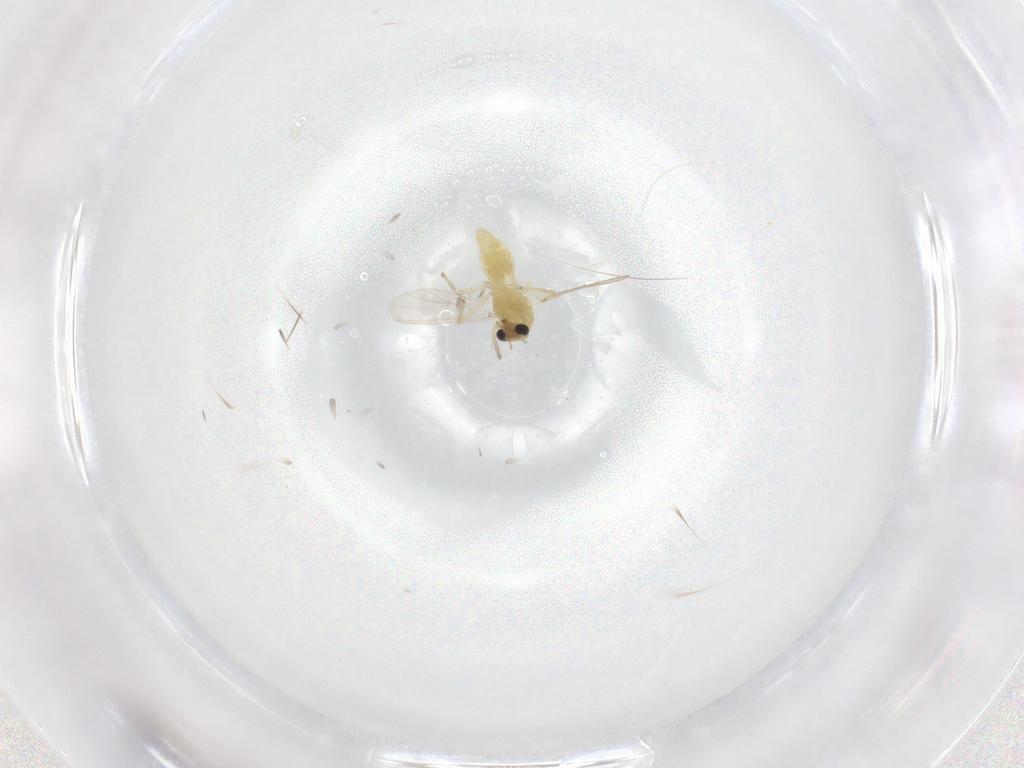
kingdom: Animalia
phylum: Arthropoda
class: Insecta
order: Diptera
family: Chironomidae
